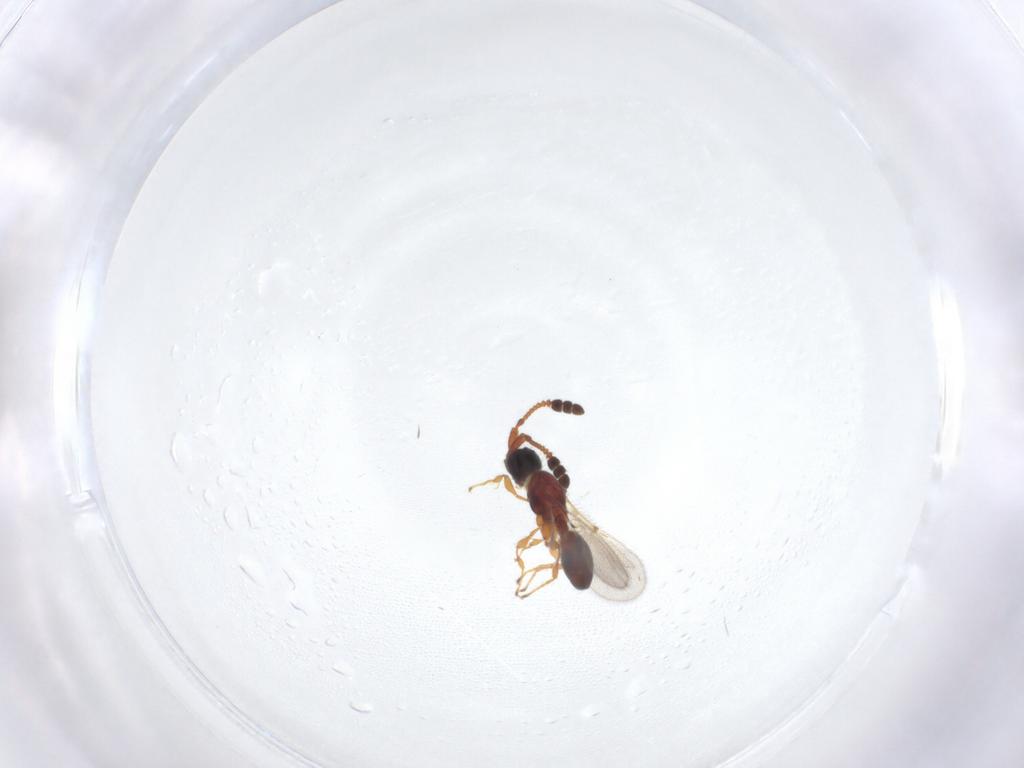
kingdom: Animalia
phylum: Arthropoda
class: Insecta
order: Hymenoptera
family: Diapriidae
